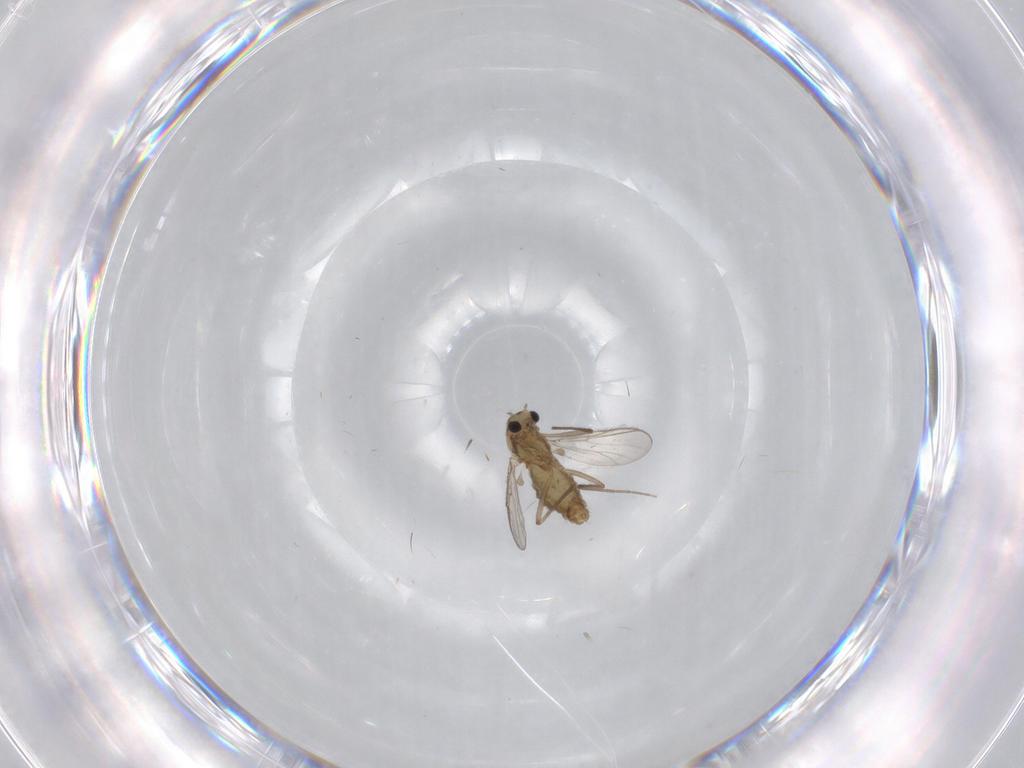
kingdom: Animalia
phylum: Arthropoda
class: Insecta
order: Diptera
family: Chironomidae
